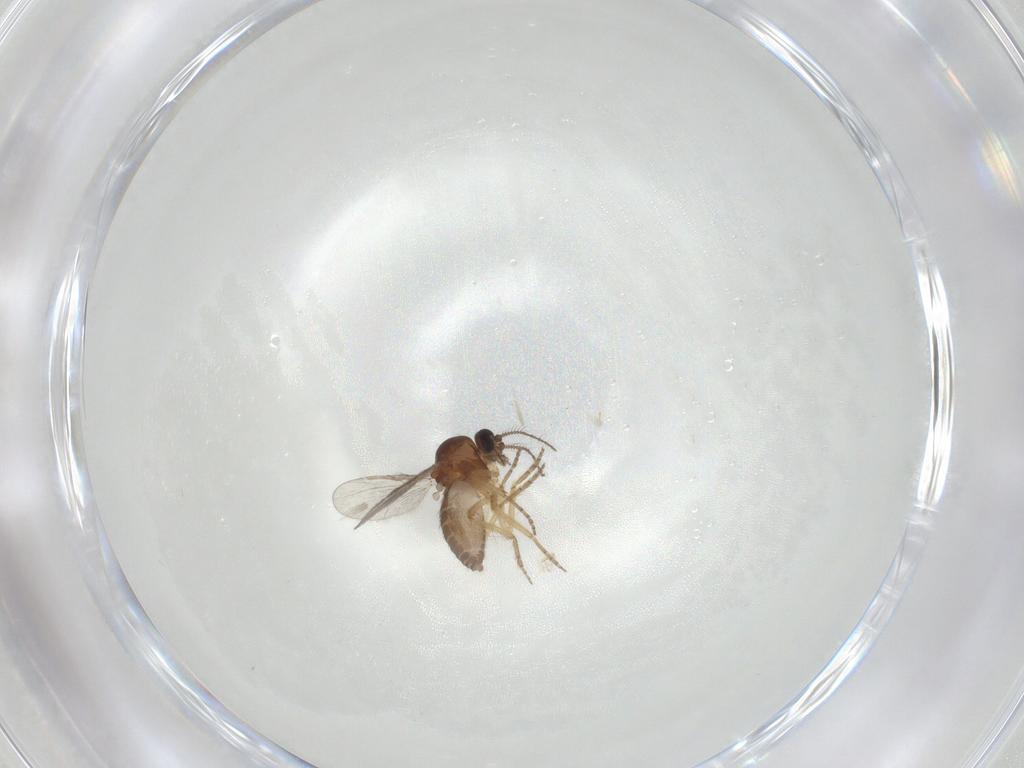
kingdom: Animalia
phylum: Arthropoda
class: Insecta
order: Diptera
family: Ceratopogonidae
